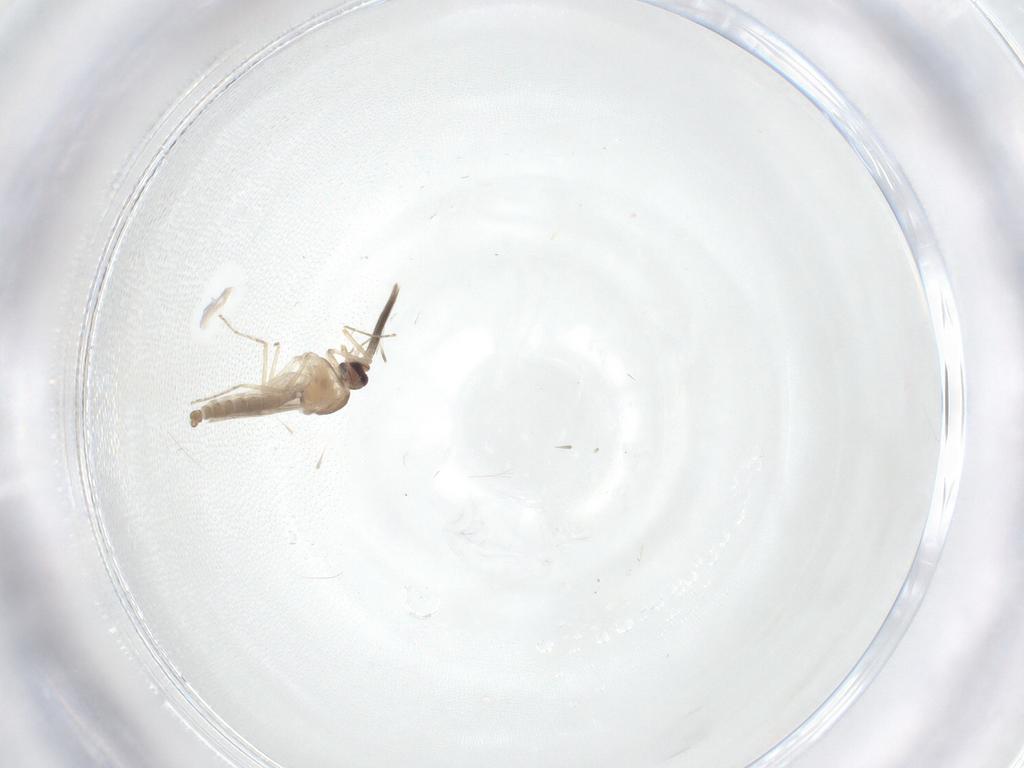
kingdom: Animalia
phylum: Arthropoda
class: Insecta
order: Diptera
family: Ceratopogonidae
